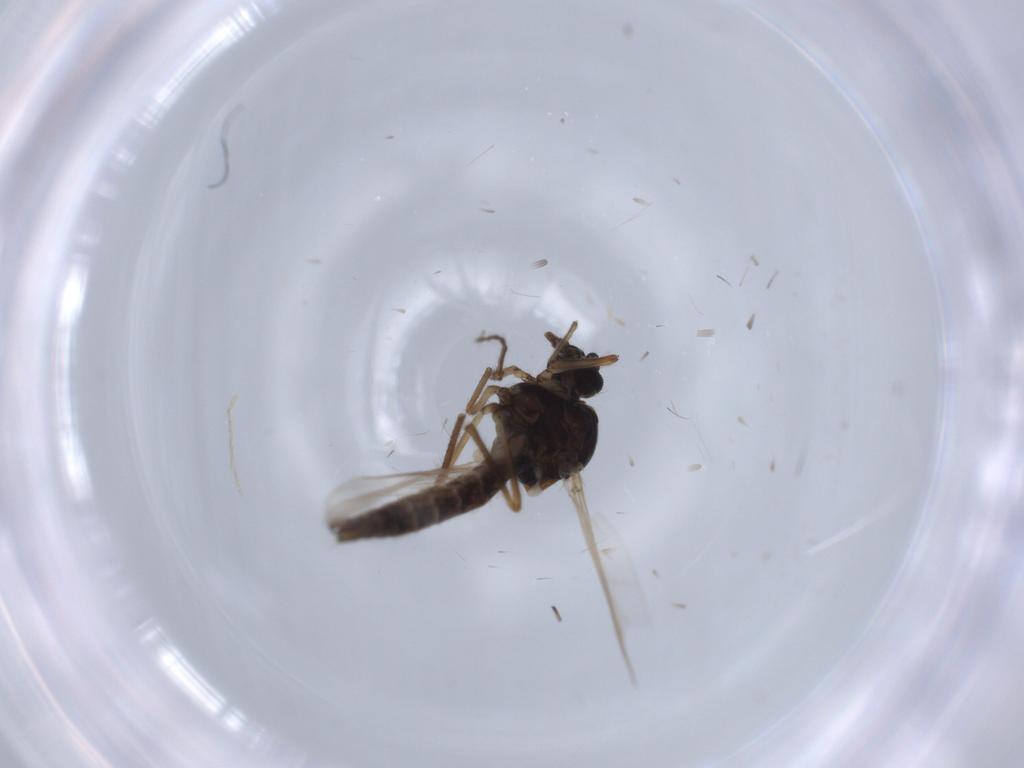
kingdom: Animalia
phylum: Arthropoda
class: Insecta
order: Diptera
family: Ceratopogonidae
